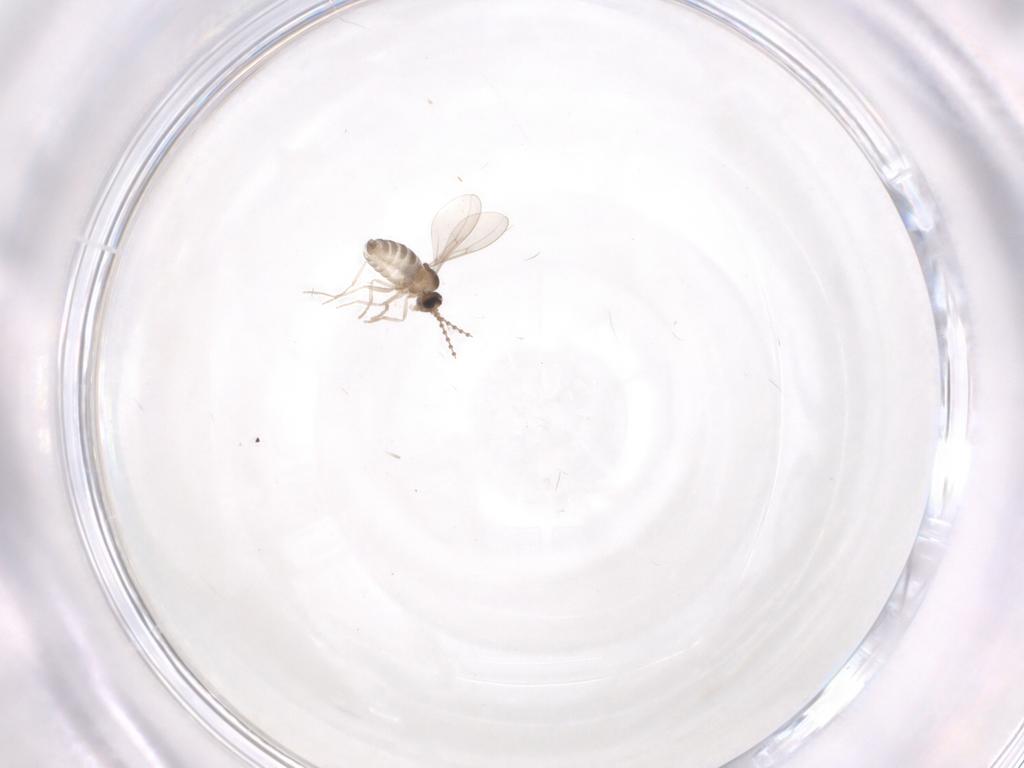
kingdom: Animalia
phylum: Arthropoda
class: Insecta
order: Diptera
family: Cecidomyiidae
